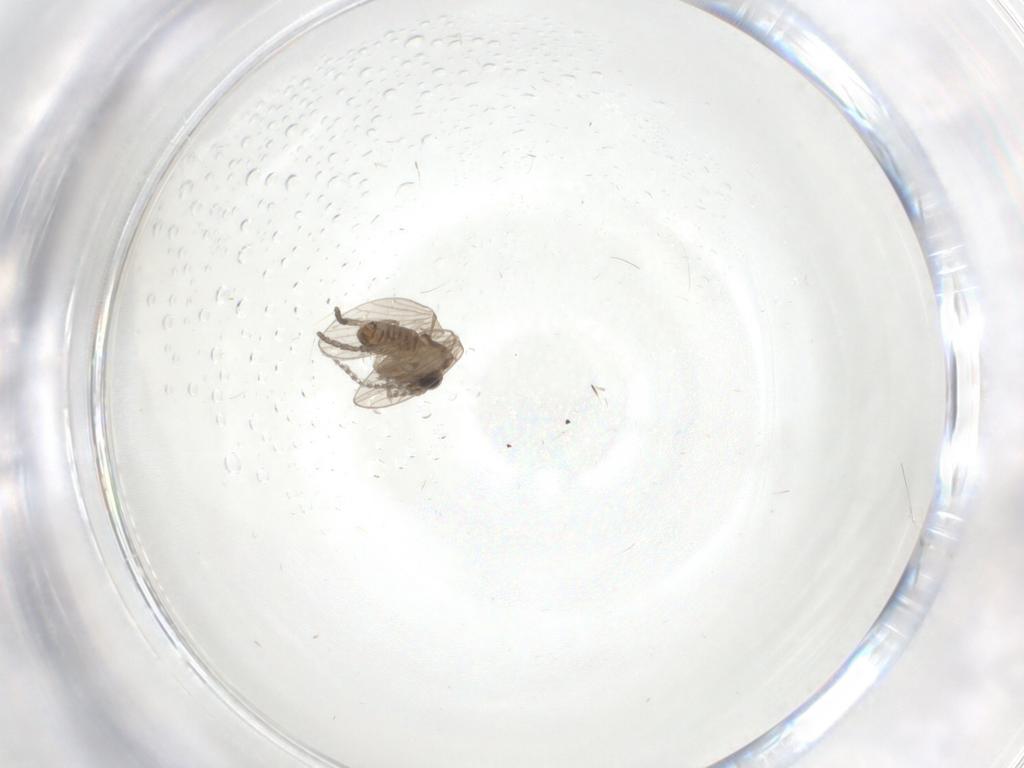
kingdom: Animalia
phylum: Arthropoda
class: Insecta
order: Diptera
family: Psychodidae
